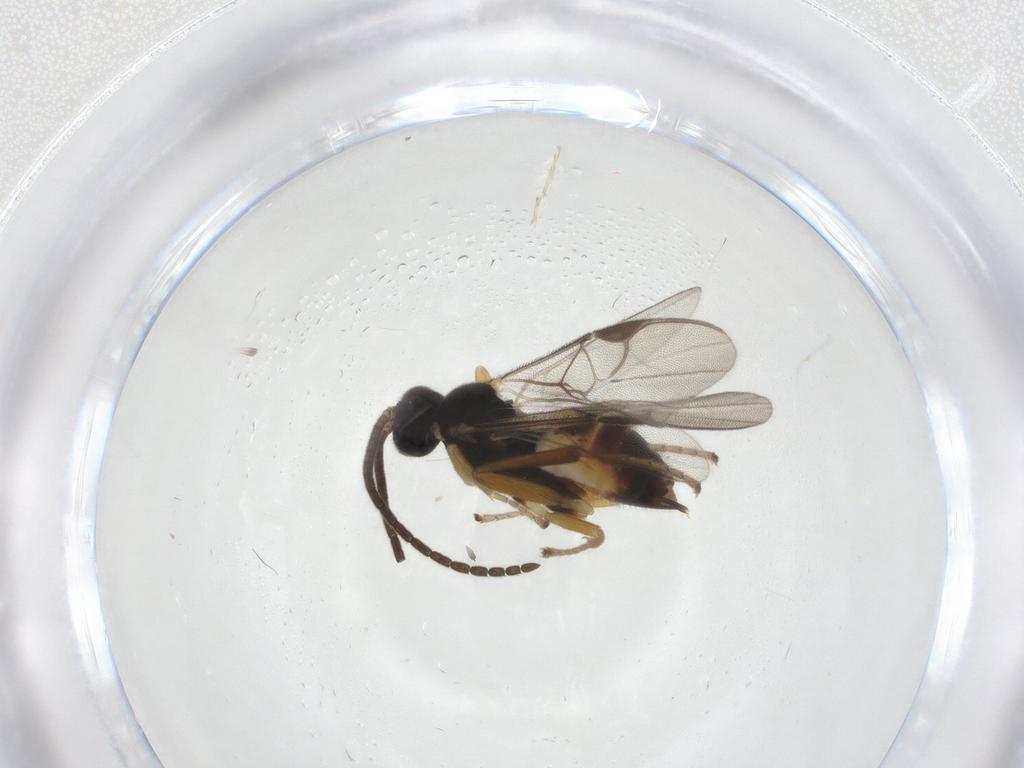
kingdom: Animalia
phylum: Arthropoda
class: Insecta
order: Hymenoptera
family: Braconidae
